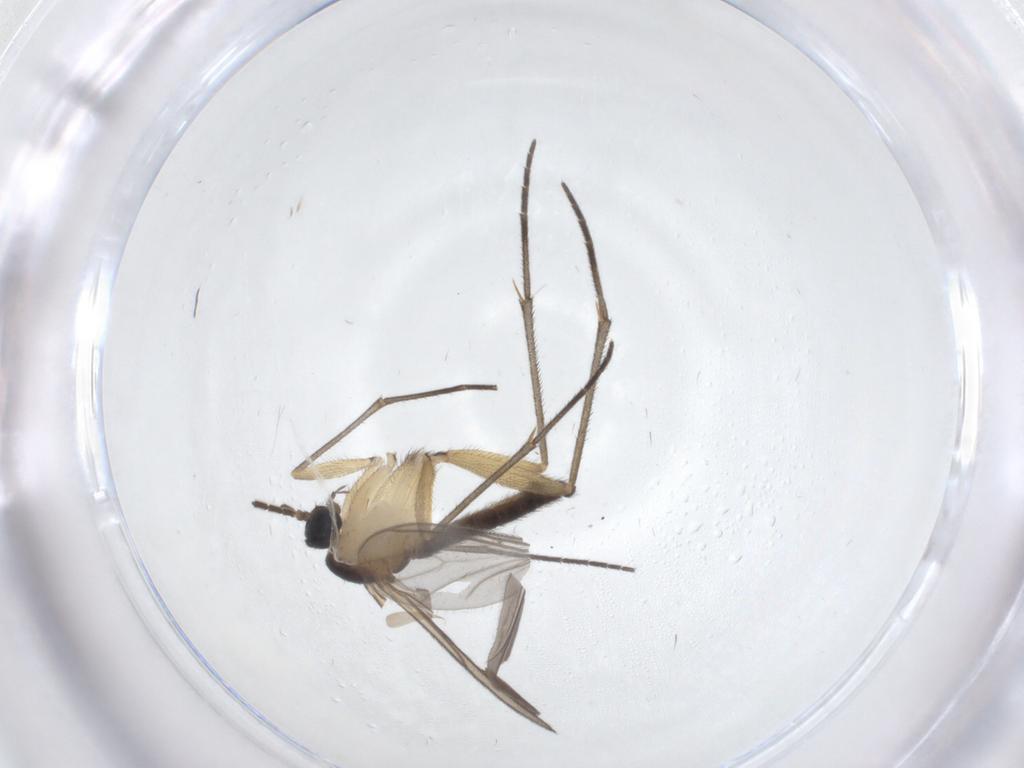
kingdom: Animalia
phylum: Arthropoda
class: Insecta
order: Diptera
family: Sciaridae
